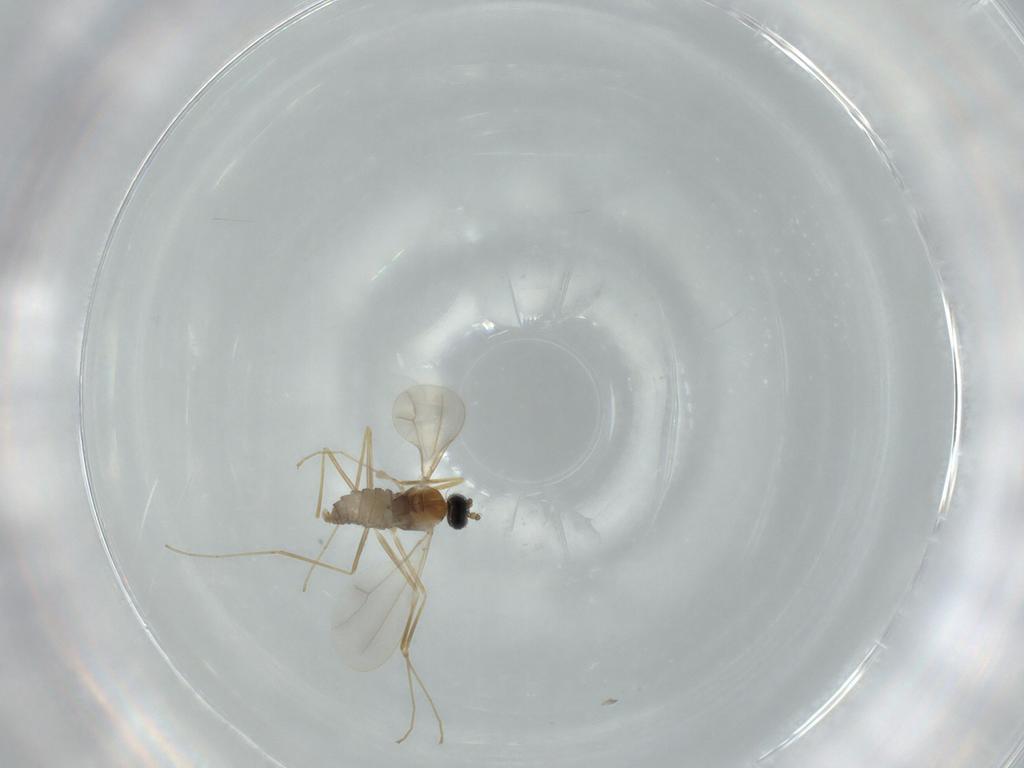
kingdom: Animalia
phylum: Arthropoda
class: Insecta
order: Diptera
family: Cecidomyiidae
